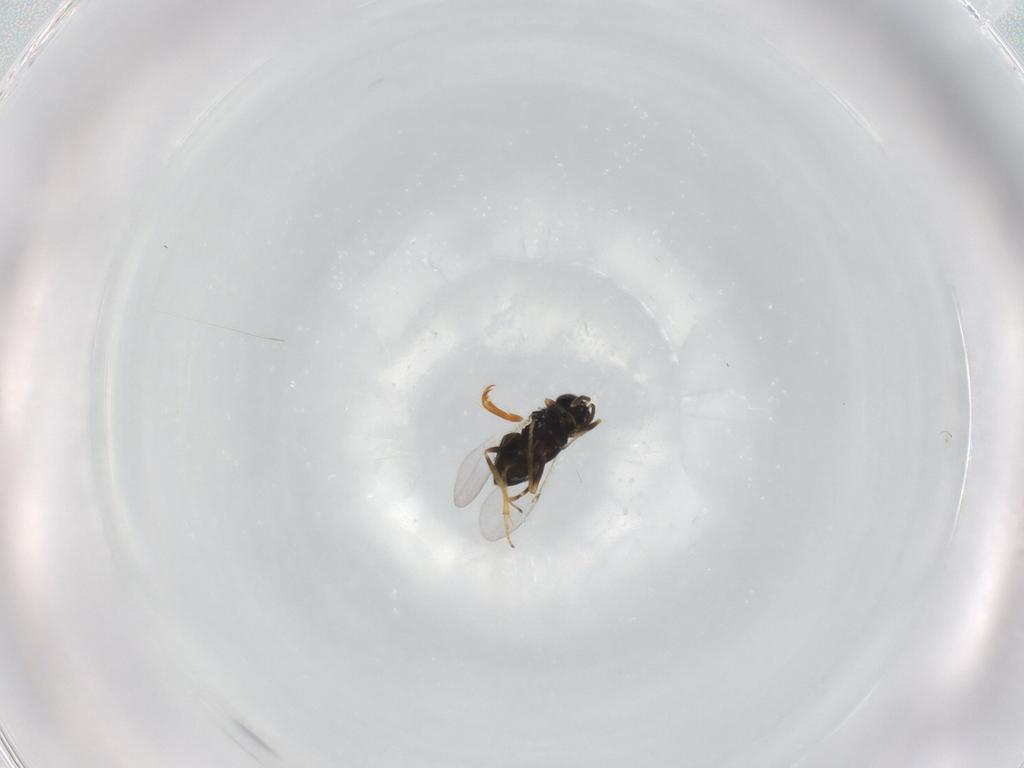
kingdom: Animalia
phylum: Arthropoda
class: Insecta
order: Hymenoptera
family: Encyrtidae
